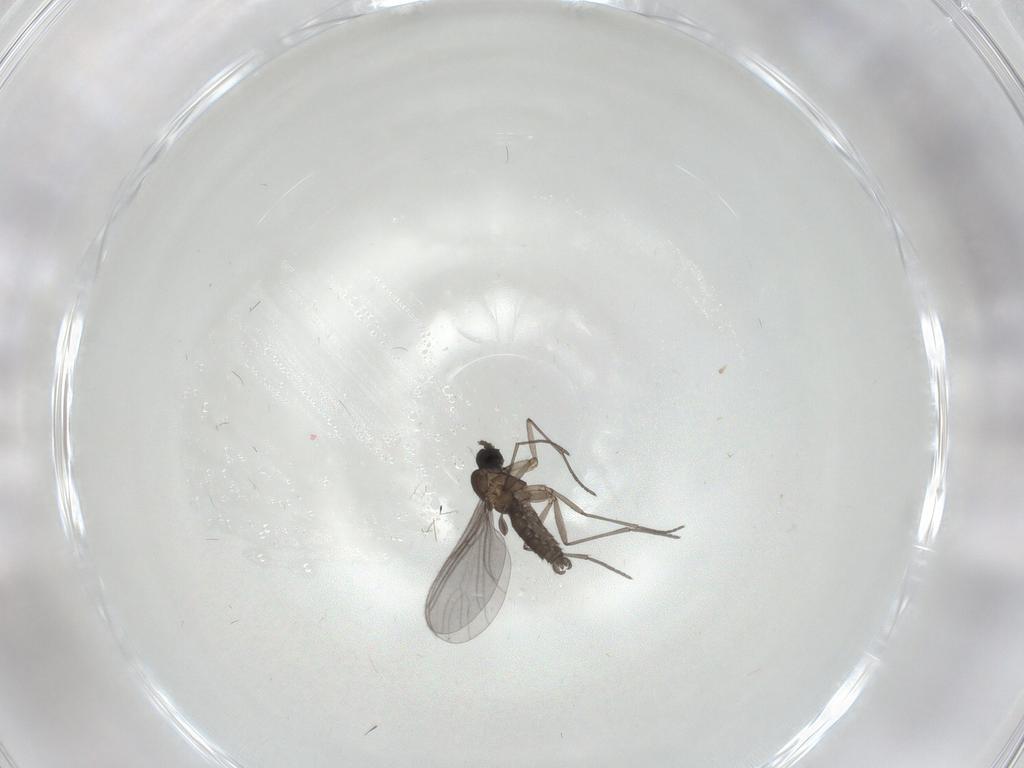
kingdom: Animalia
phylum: Arthropoda
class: Insecta
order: Diptera
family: Sciaridae
